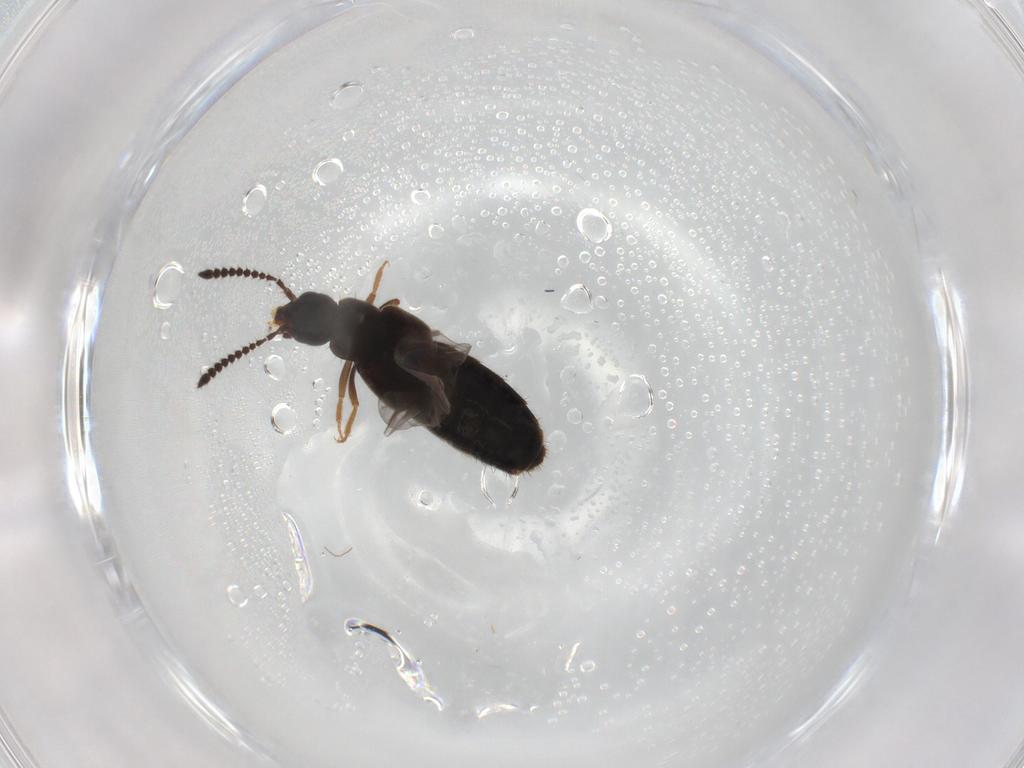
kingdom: Animalia
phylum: Arthropoda
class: Insecta
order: Coleoptera
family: Staphylinidae
